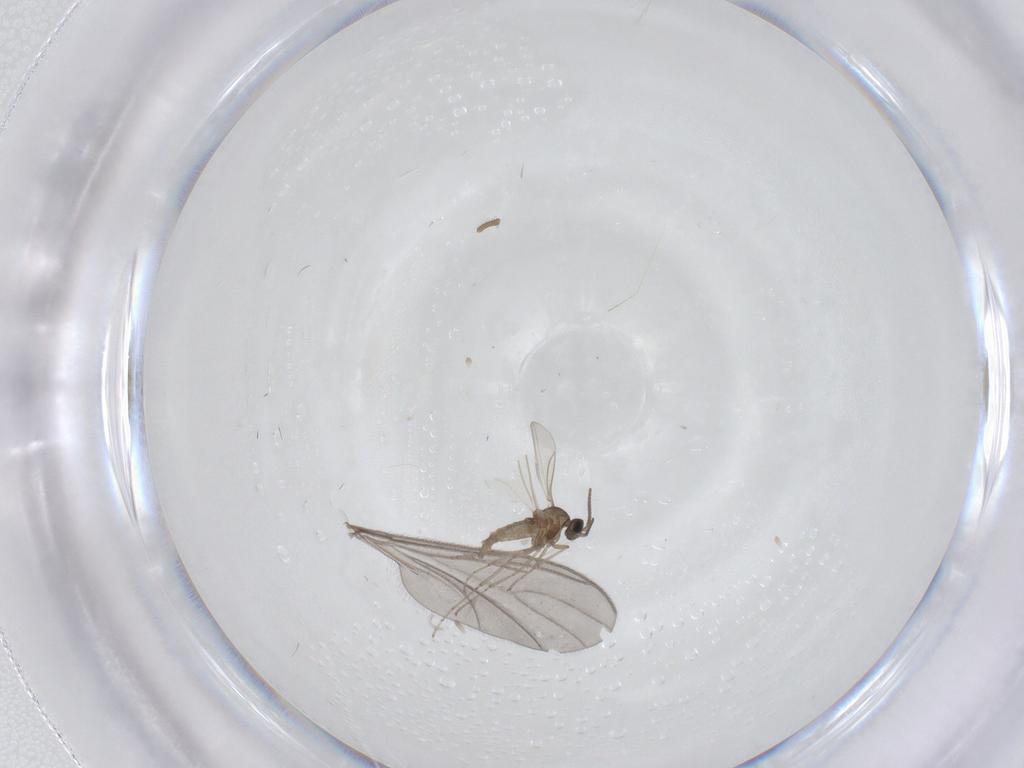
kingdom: Animalia
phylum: Arthropoda
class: Insecta
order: Diptera
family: Cecidomyiidae
